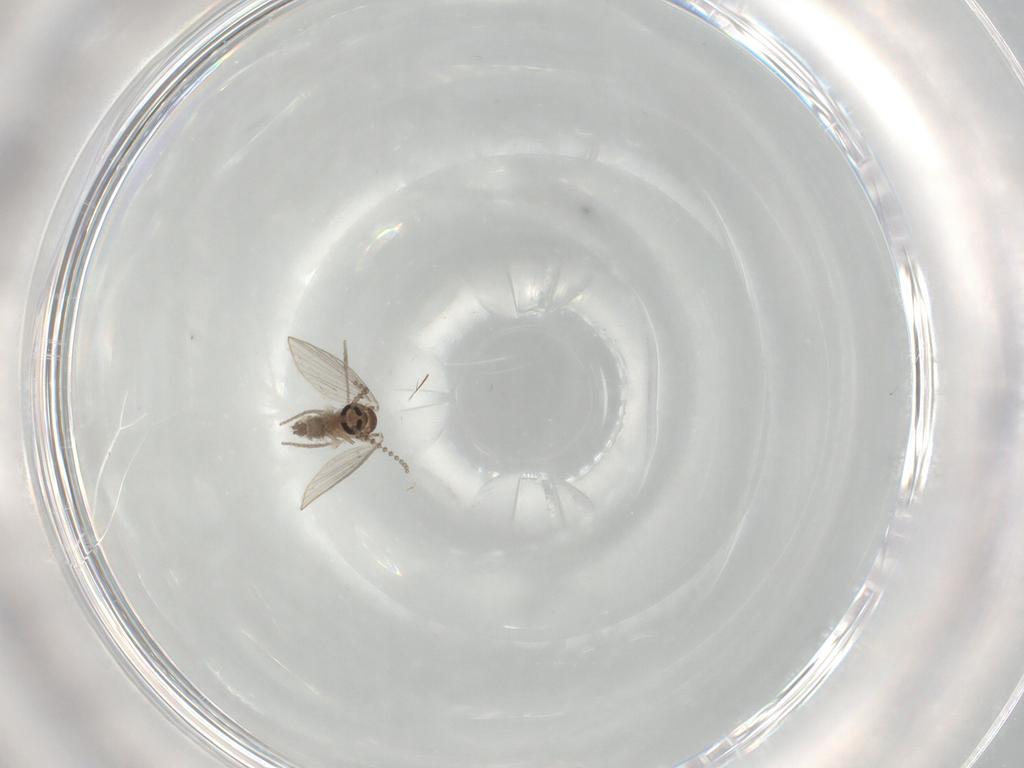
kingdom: Animalia
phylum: Arthropoda
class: Insecta
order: Diptera
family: Psychodidae
